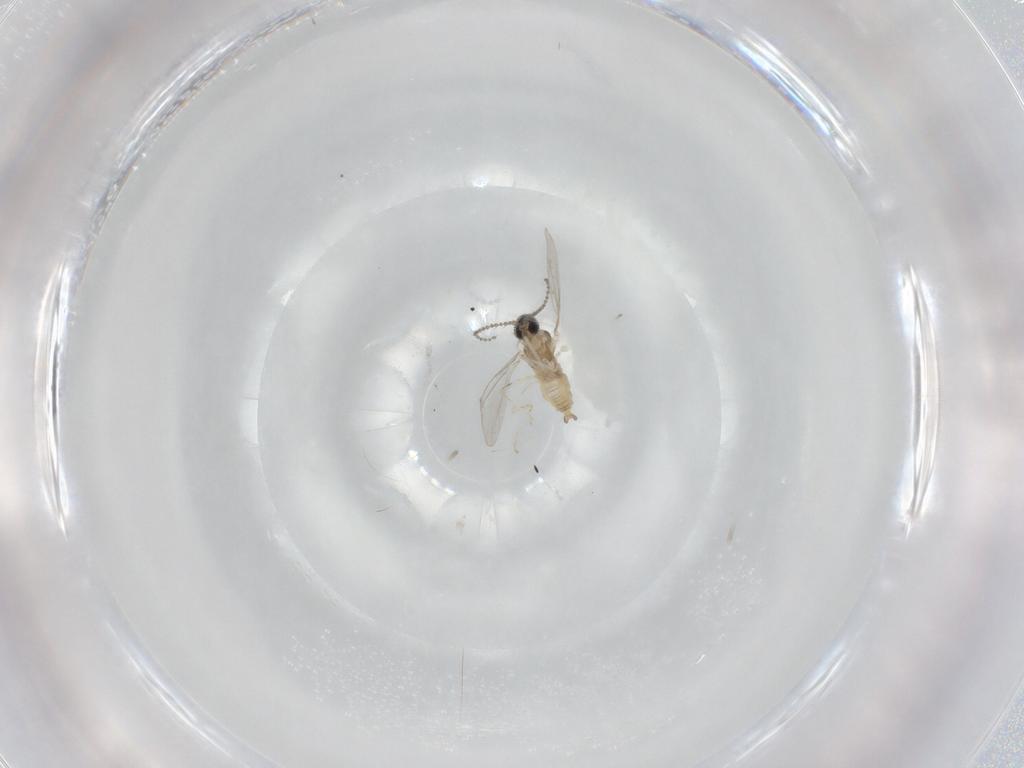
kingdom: Animalia
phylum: Arthropoda
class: Insecta
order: Diptera
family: Cecidomyiidae
